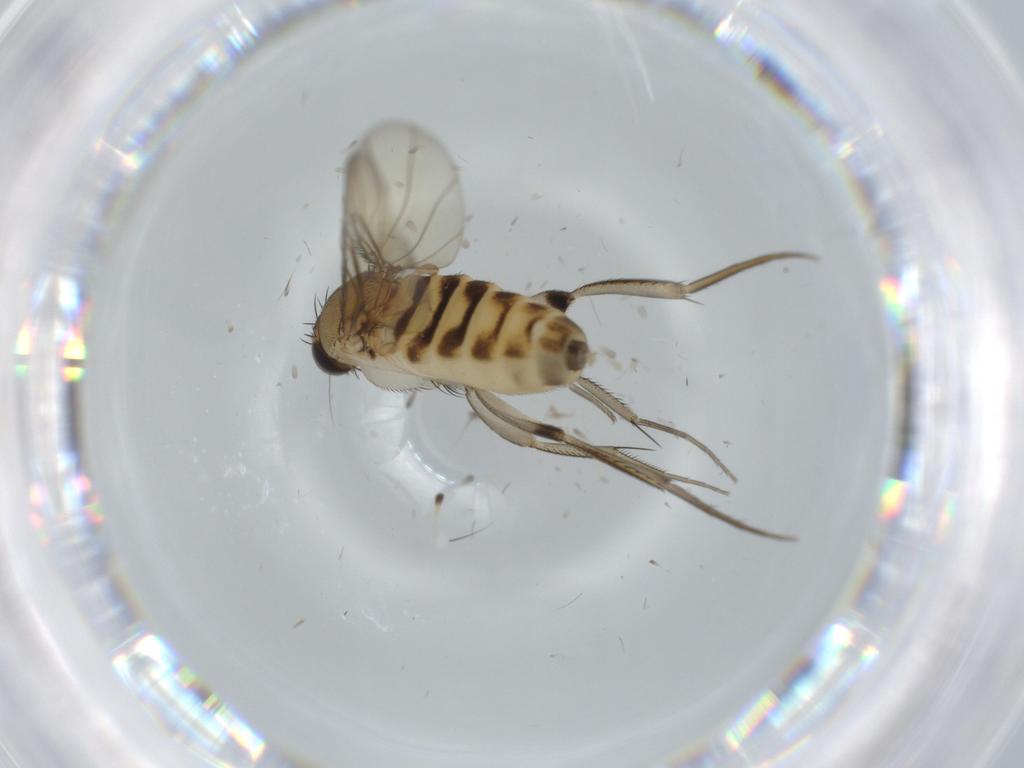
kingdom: Animalia
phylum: Arthropoda
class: Insecta
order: Diptera
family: Phoridae
